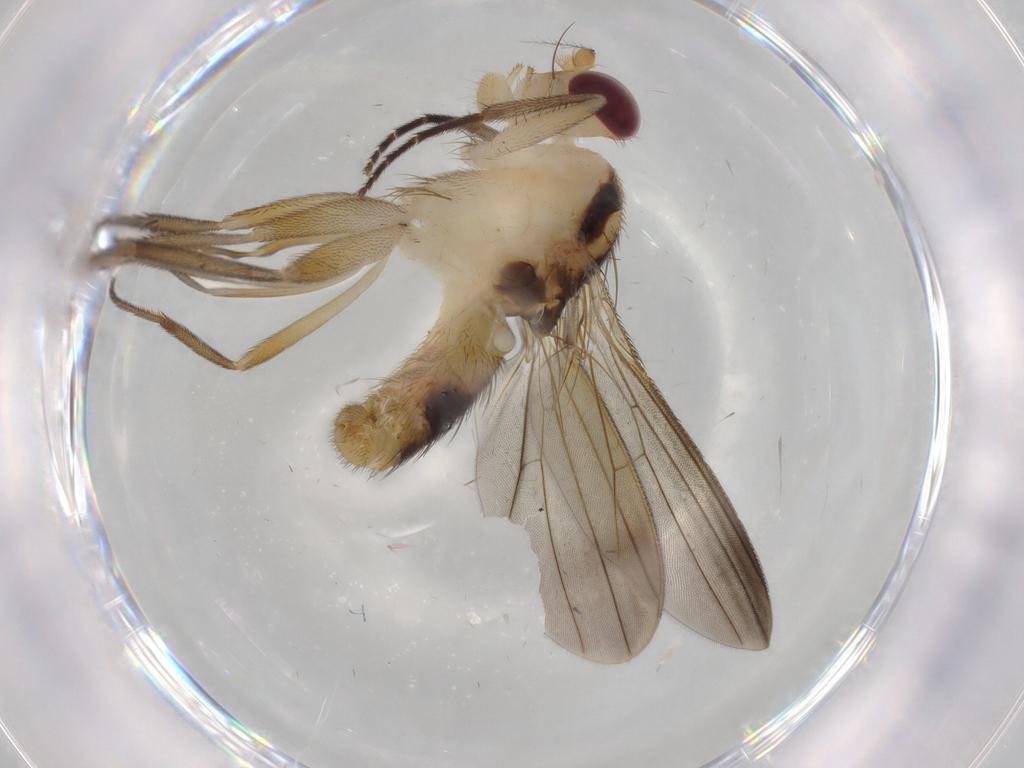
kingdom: Animalia
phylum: Arthropoda
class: Insecta
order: Diptera
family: Clusiidae
